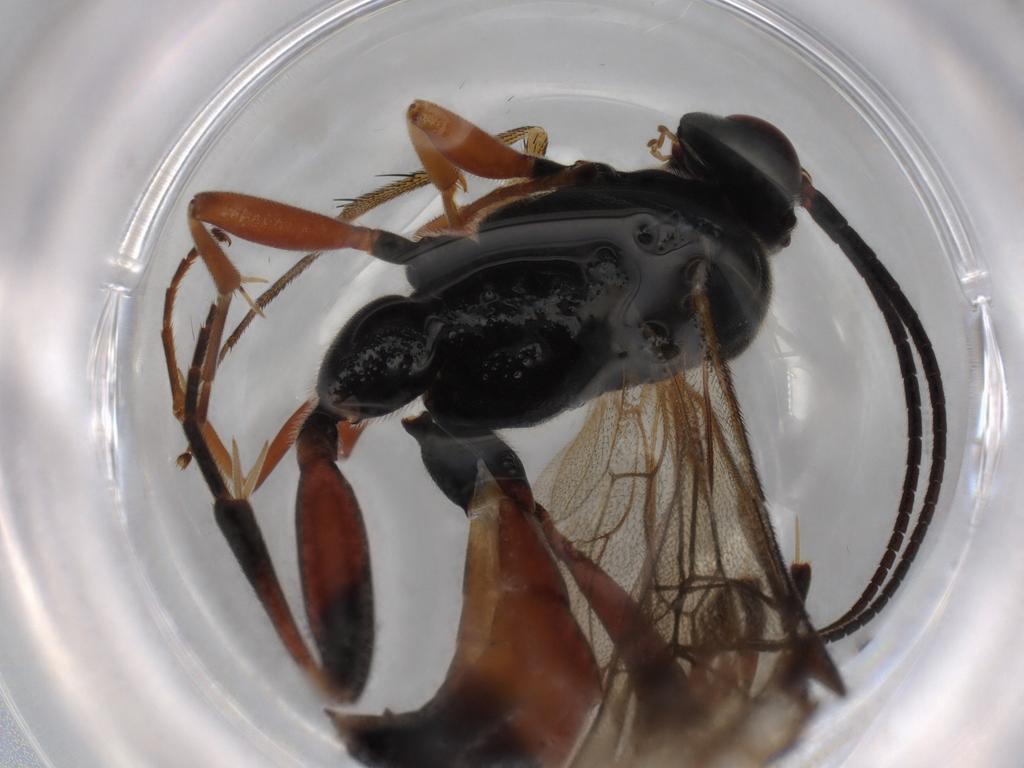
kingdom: Animalia
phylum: Arthropoda
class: Insecta
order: Hymenoptera
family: Ichneumonidae
